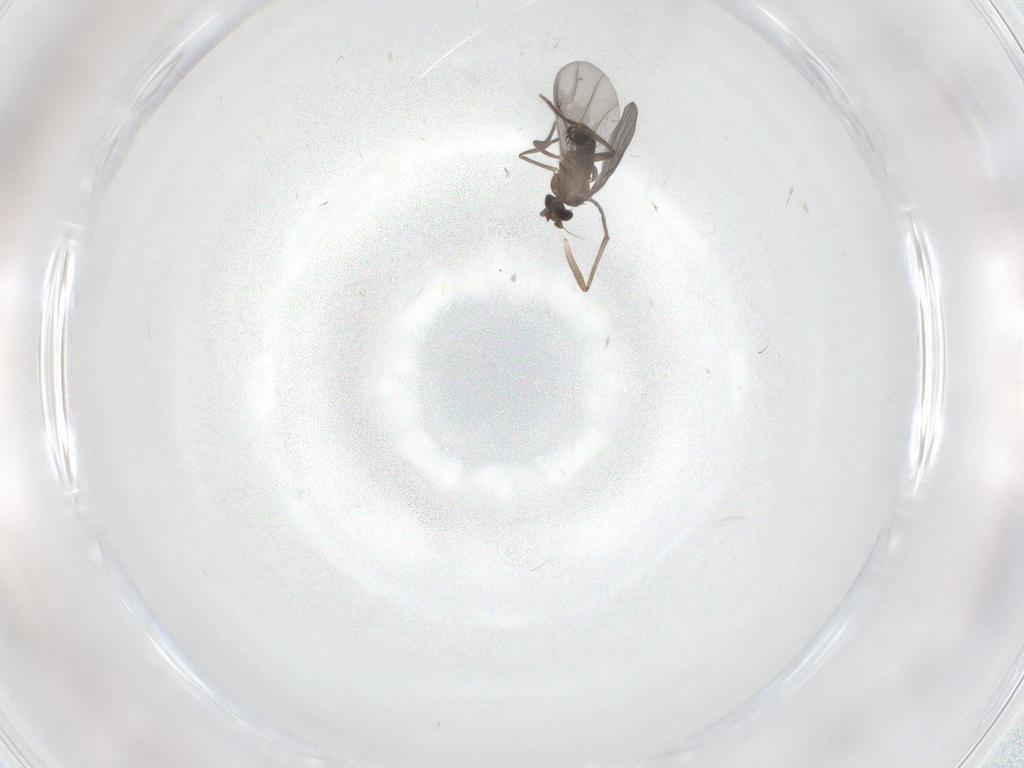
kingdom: Animalia
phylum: Arthropoda
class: Insecta
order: Diptera
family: Phoridae
